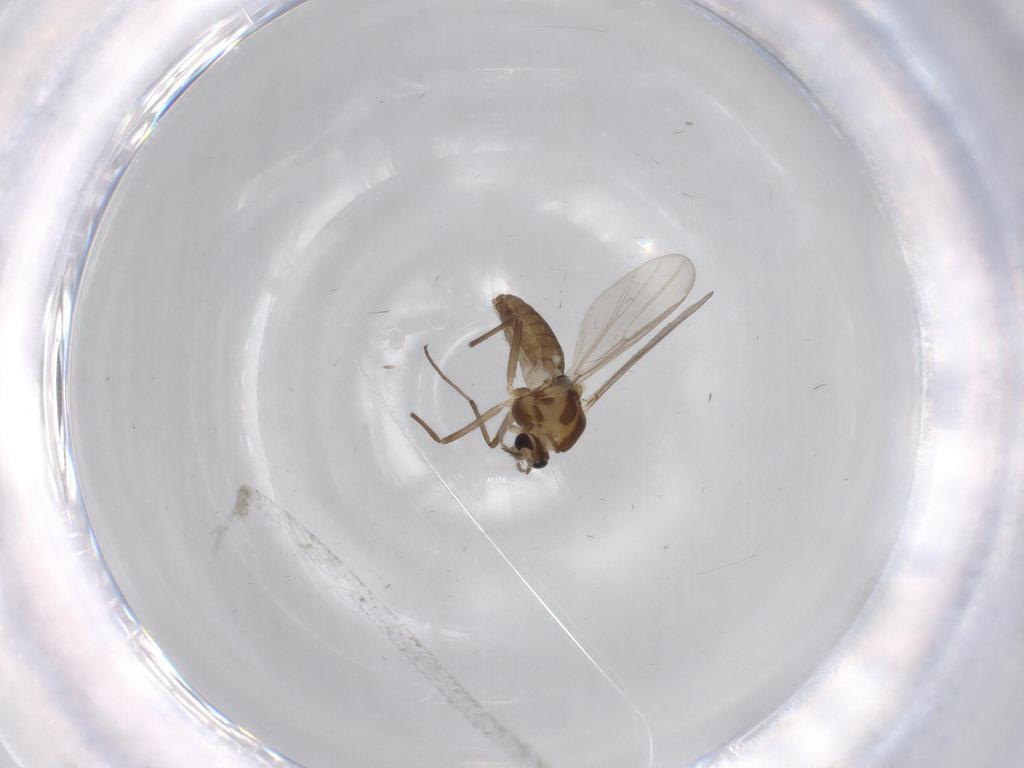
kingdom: Animalia
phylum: Arthropoda
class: Insecta
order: Diptera
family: Chironomidae
